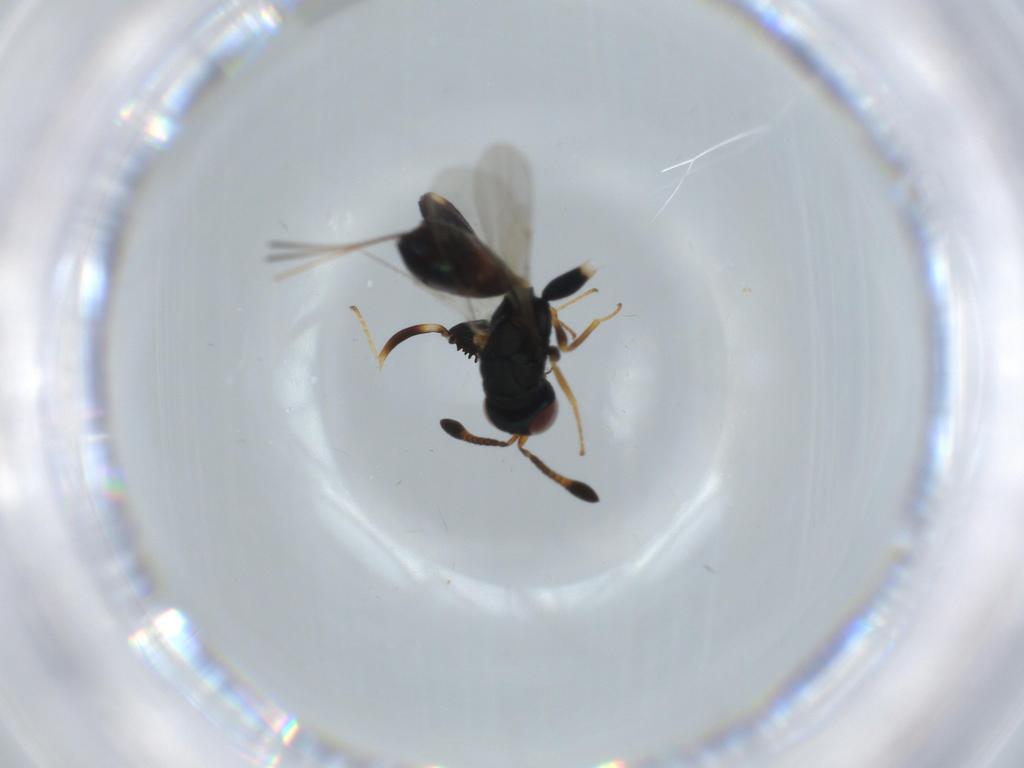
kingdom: Animalia
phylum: Arthropoda
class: Insecta
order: Hymenoptera
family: Torymidae
